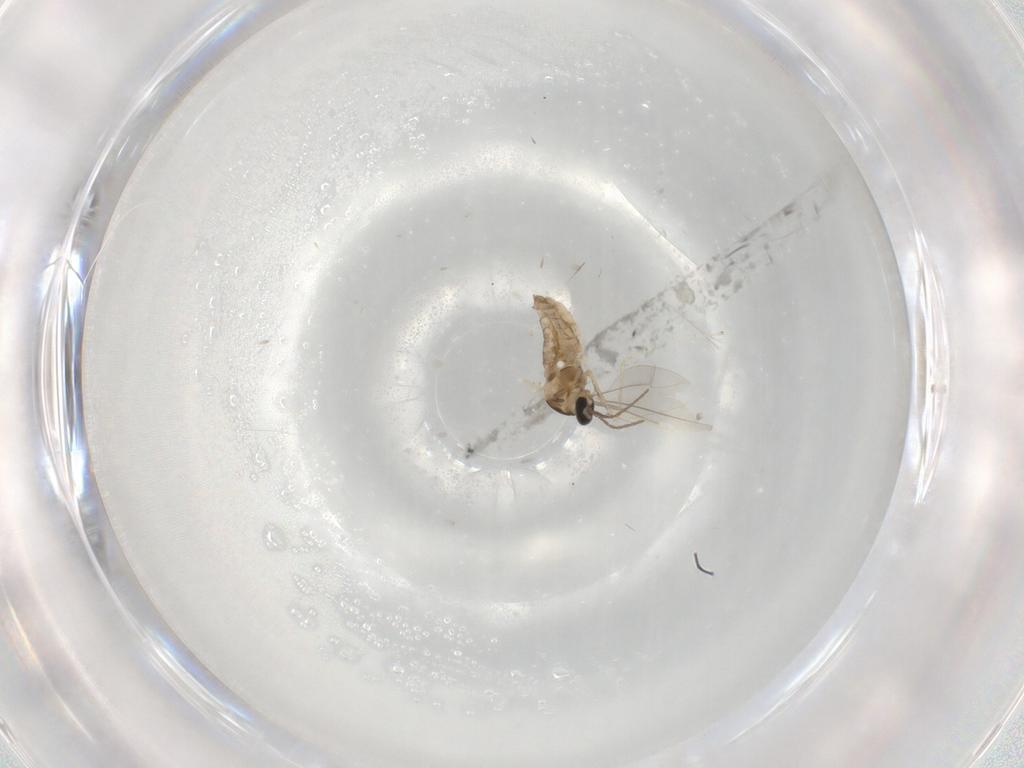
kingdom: Animalia
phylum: Arthropoda
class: Insecta
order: Diptera
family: Cecidomyiidae
